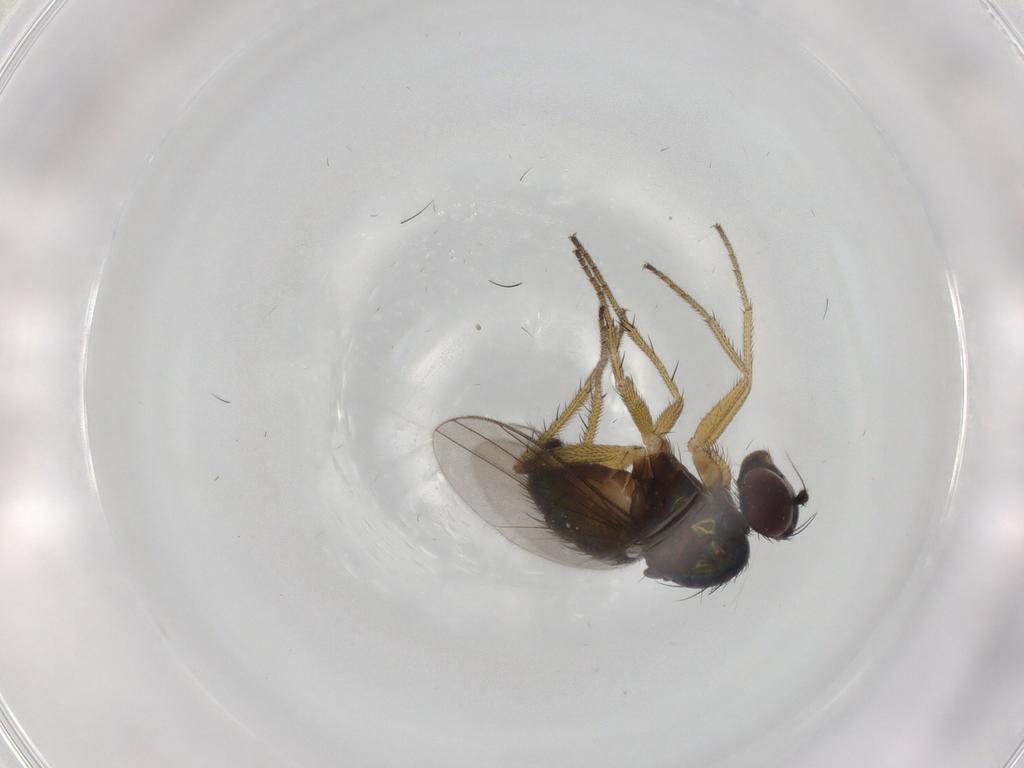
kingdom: Animalia
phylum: Arthropoda
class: Insecta
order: Diptera
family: Dolichopodidae
